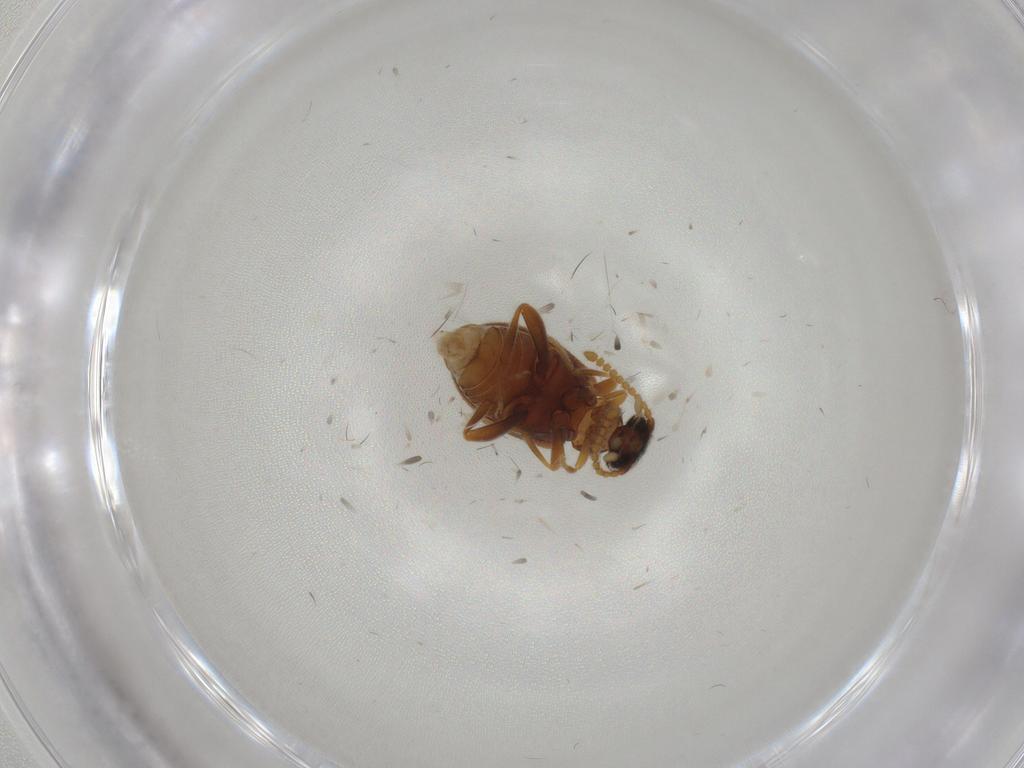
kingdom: Animalia
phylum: Arthropoda
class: Insecta
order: Coleoptera
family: Aderidae
